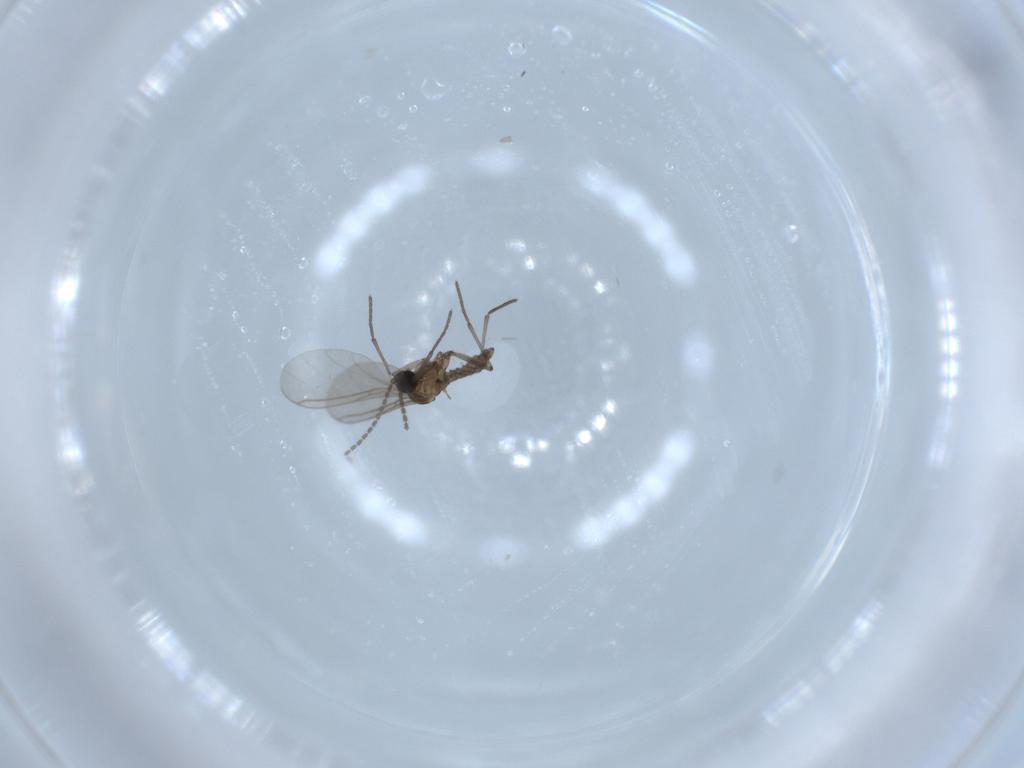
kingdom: Animalia
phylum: Arthropoda
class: Insecta
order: Diptera
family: Sciaridae
